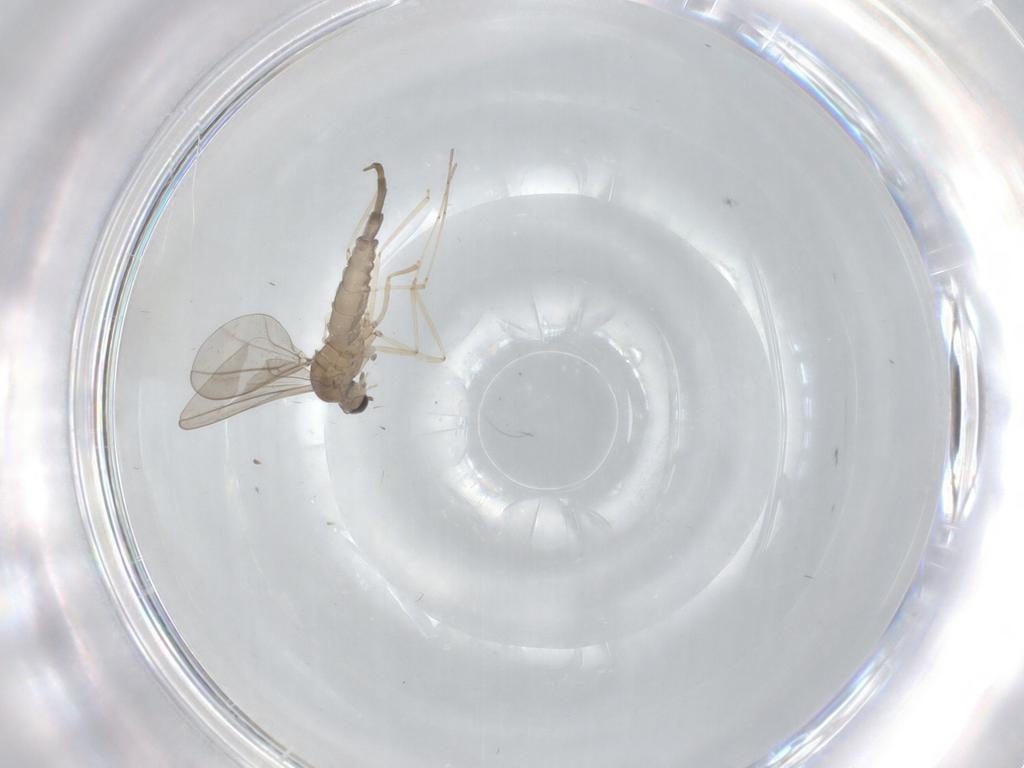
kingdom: Animalia
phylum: Arthropoda
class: Insecta
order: Diptera
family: Cecidomyiidae
